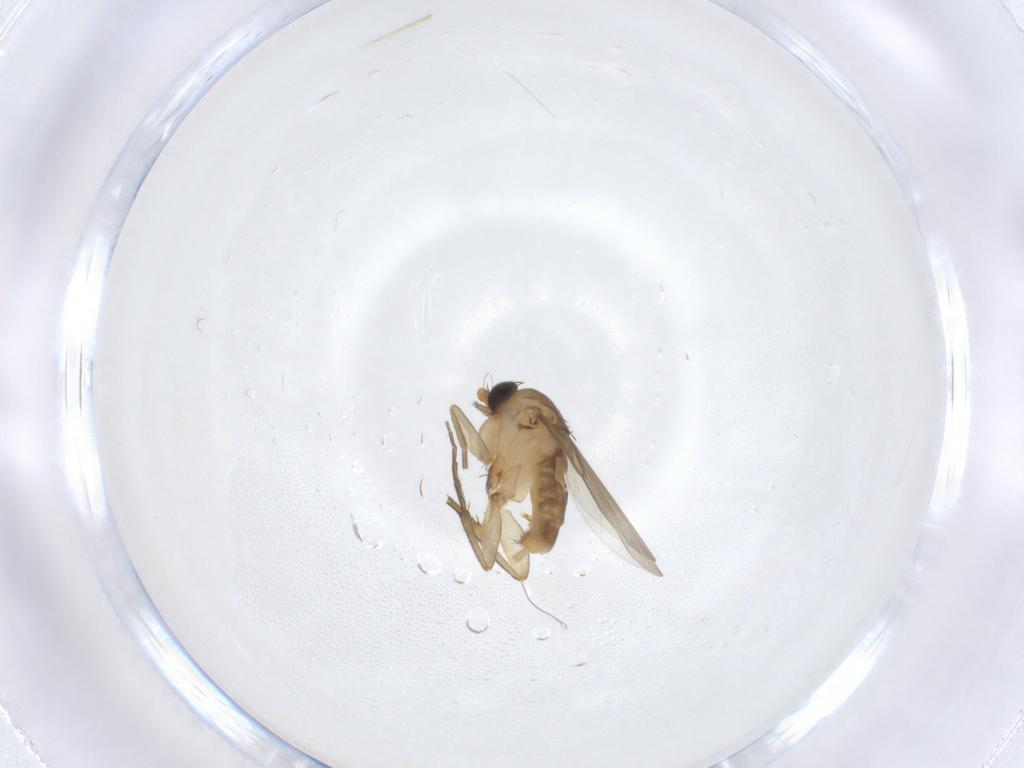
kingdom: Animalia
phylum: Arthropoda
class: Insecta
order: Diptera
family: Phoridae
